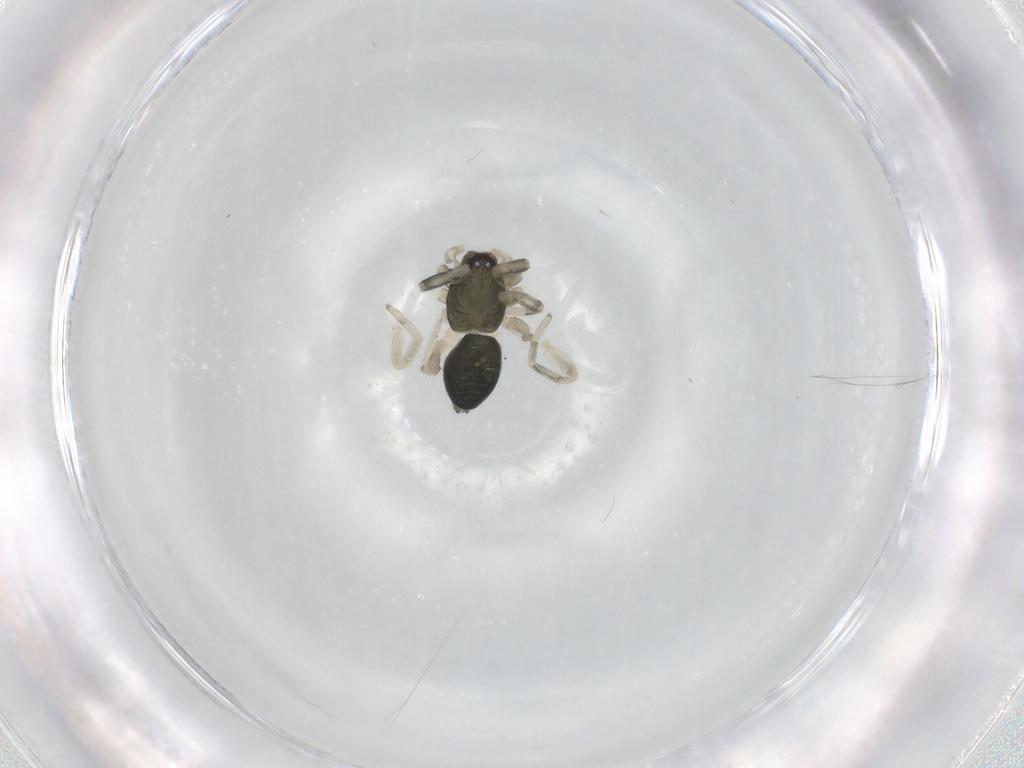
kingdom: Animalia
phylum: Arthropoda
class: Arachnida
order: Araneae
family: Trachelidae
